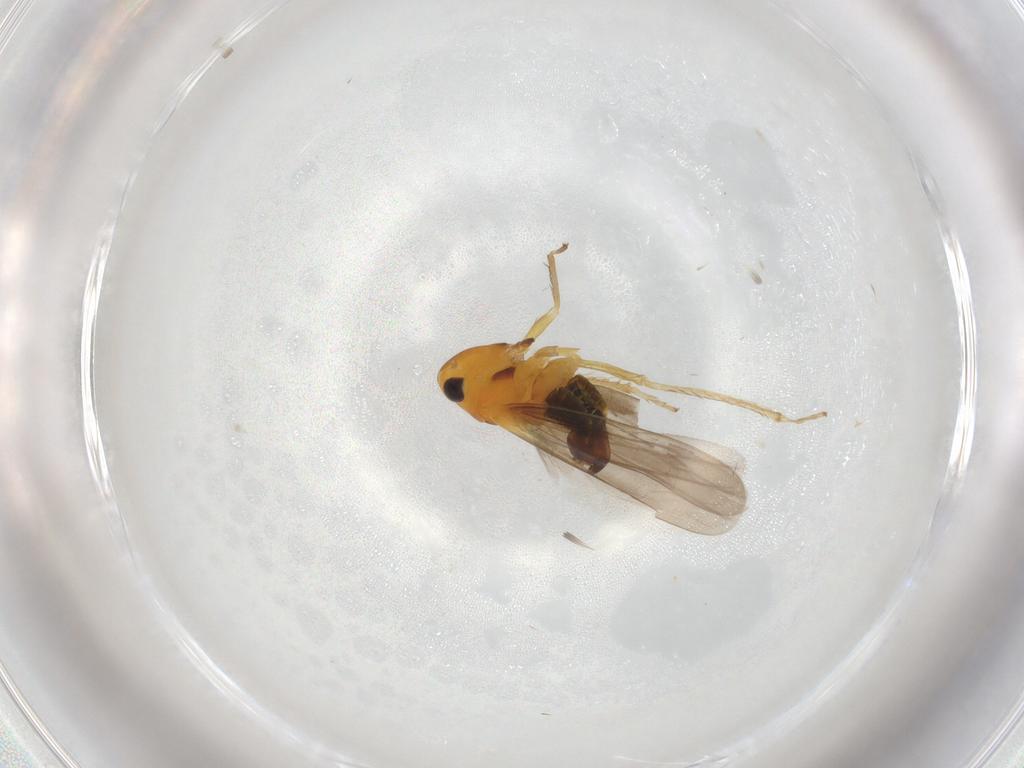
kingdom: Animalia
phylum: Arthropoda
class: Insecta
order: Hemiptera
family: Cicadellidae
